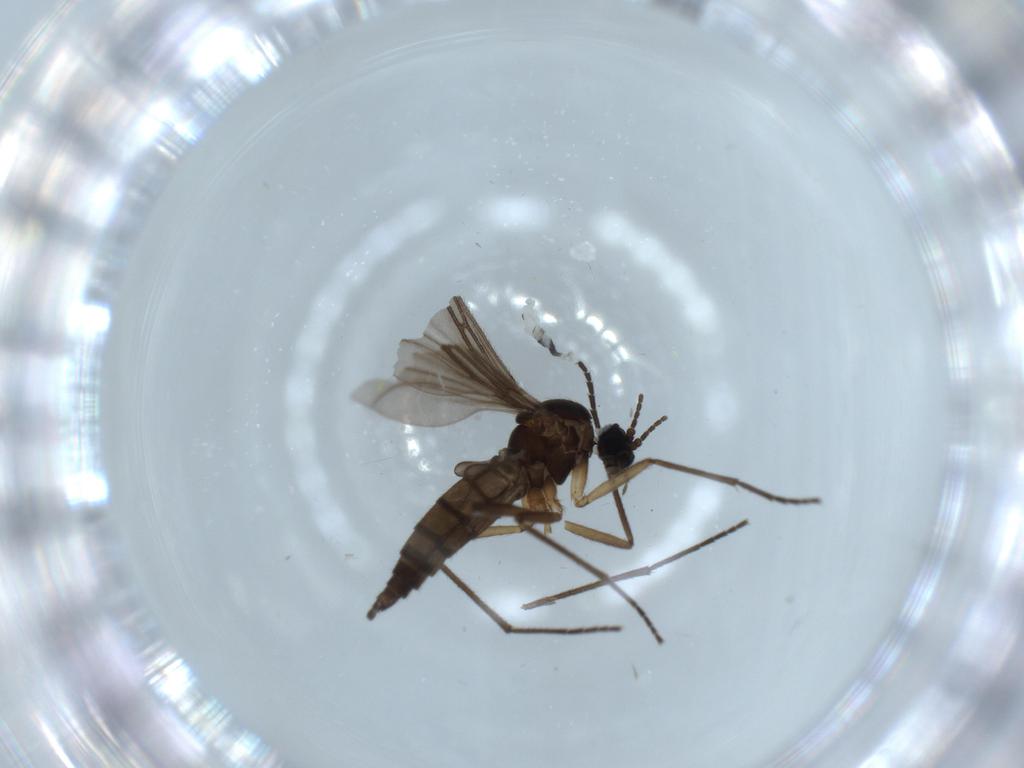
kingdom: Animalia
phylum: Arthropoda
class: Insecta
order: Diptera
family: Sciaridae
